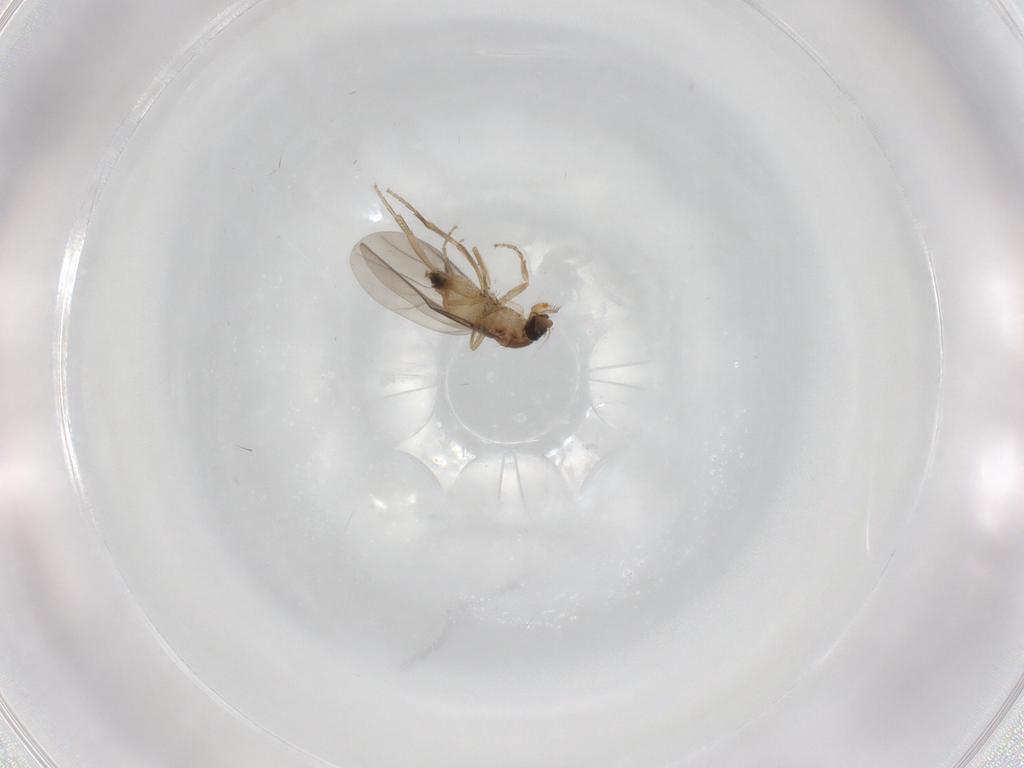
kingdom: Animalia
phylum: Arthropoda
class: Insecta
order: Diptera
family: Phoridae
